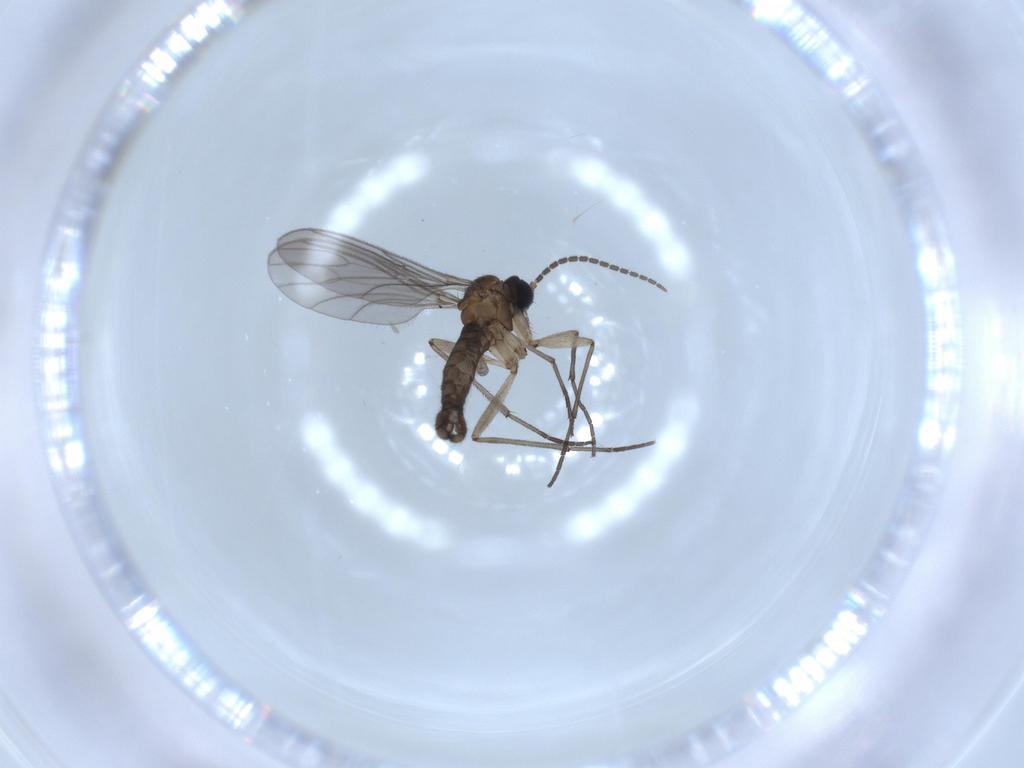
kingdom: Animalia
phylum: Arthropoda
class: Insecta
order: Diptera
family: Sciaridae
